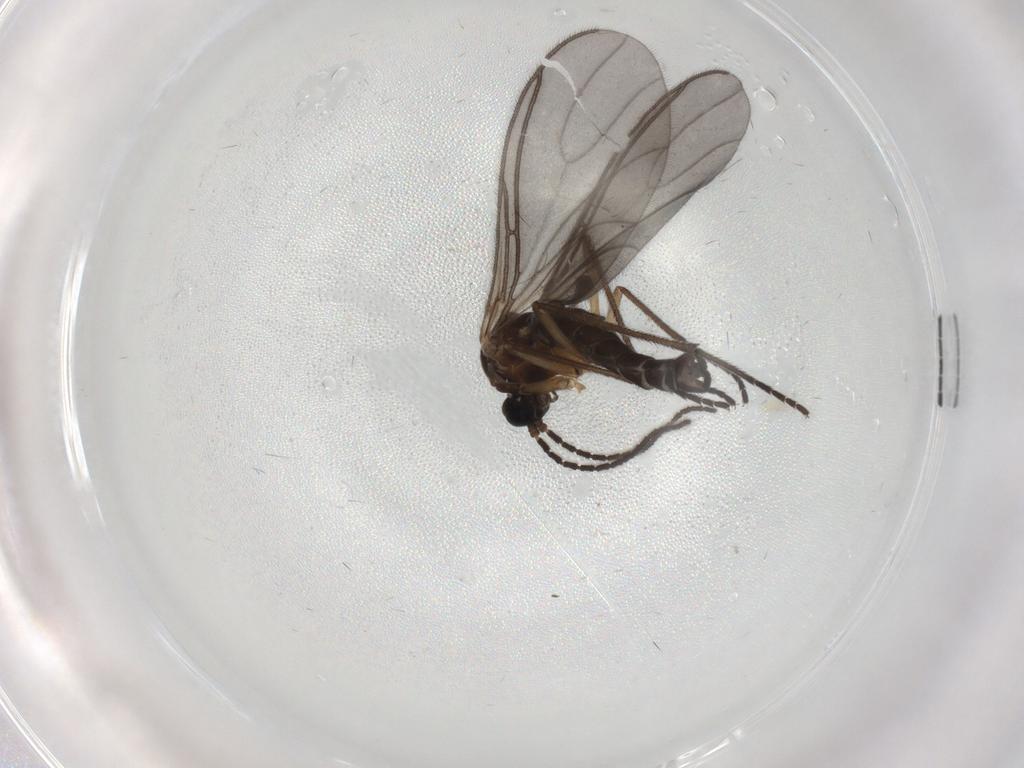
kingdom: Animalia
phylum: Arthropoda
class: Insecta
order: Diptera
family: Sciaridae
